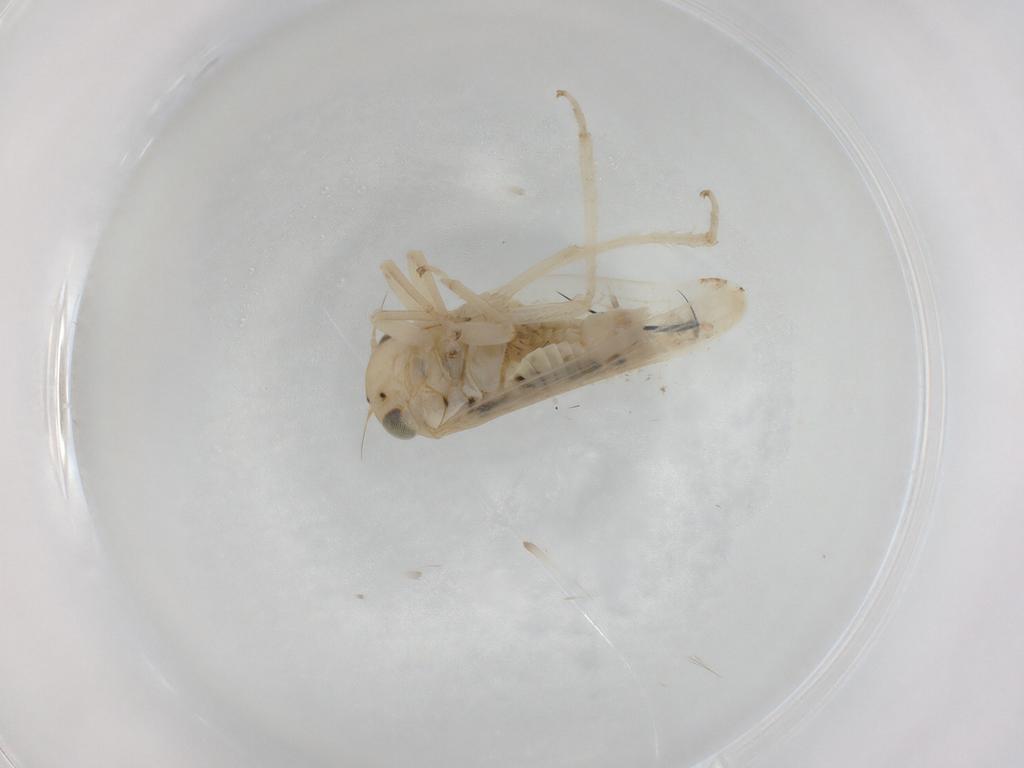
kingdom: Animalia
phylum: Arthropoda
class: Insecta
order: Hemiptera
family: Cicadellidae
